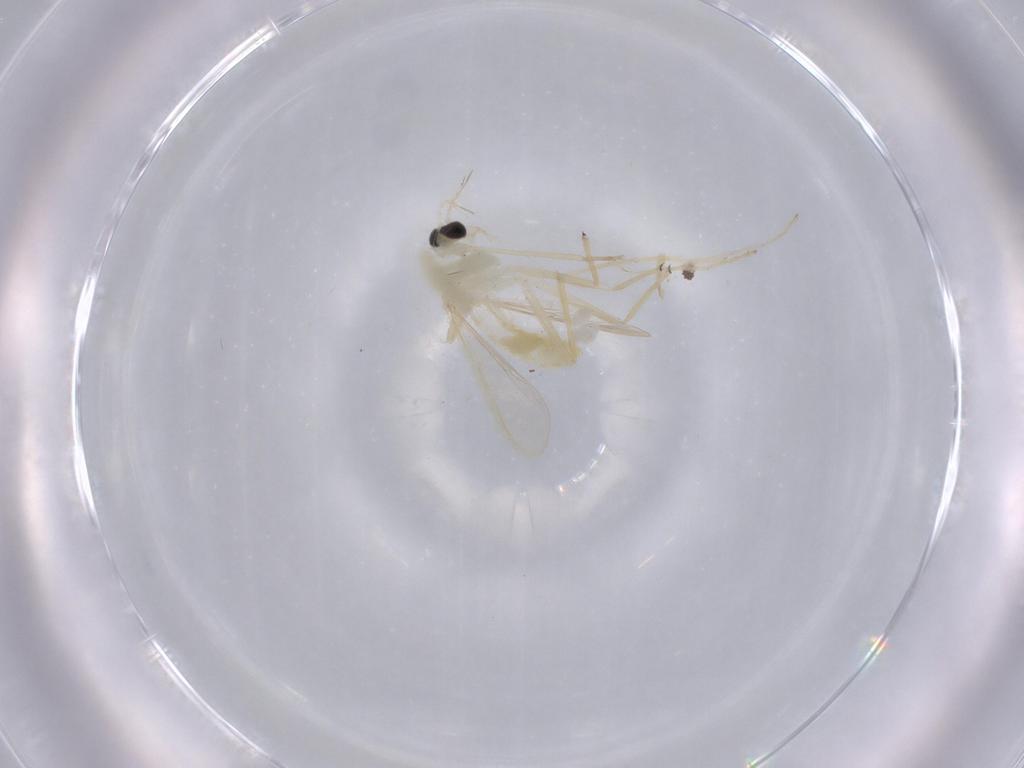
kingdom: Animalia
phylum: Arthropoda
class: Insecta
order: Diptera
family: Chironomidae
